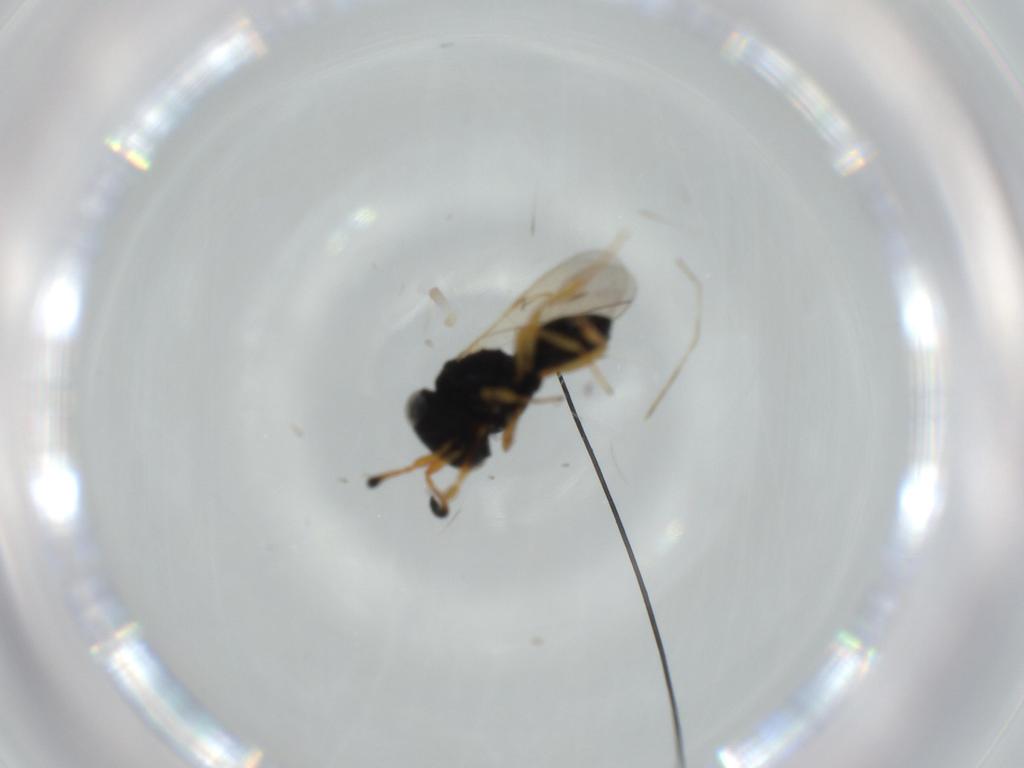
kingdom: Animalia
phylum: Arthropoda
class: Insecta
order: Hymenoptera
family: Scelionidae
